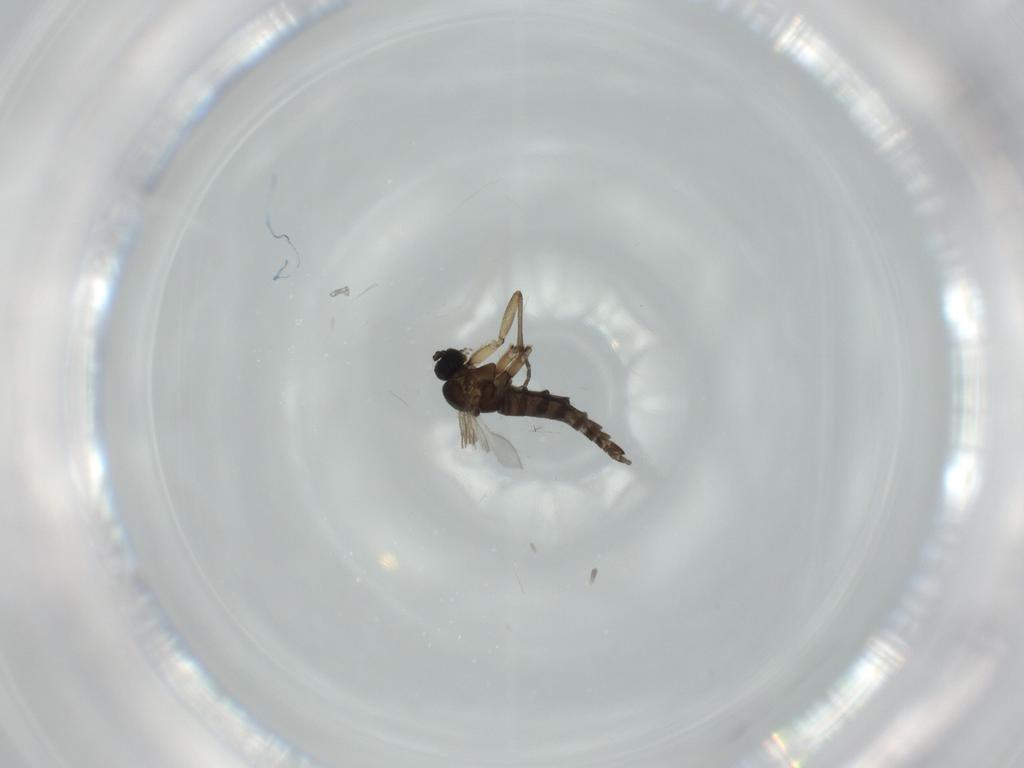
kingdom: Animalia
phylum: Arthropoda
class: Insecta
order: Diptera
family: Sciaridae
